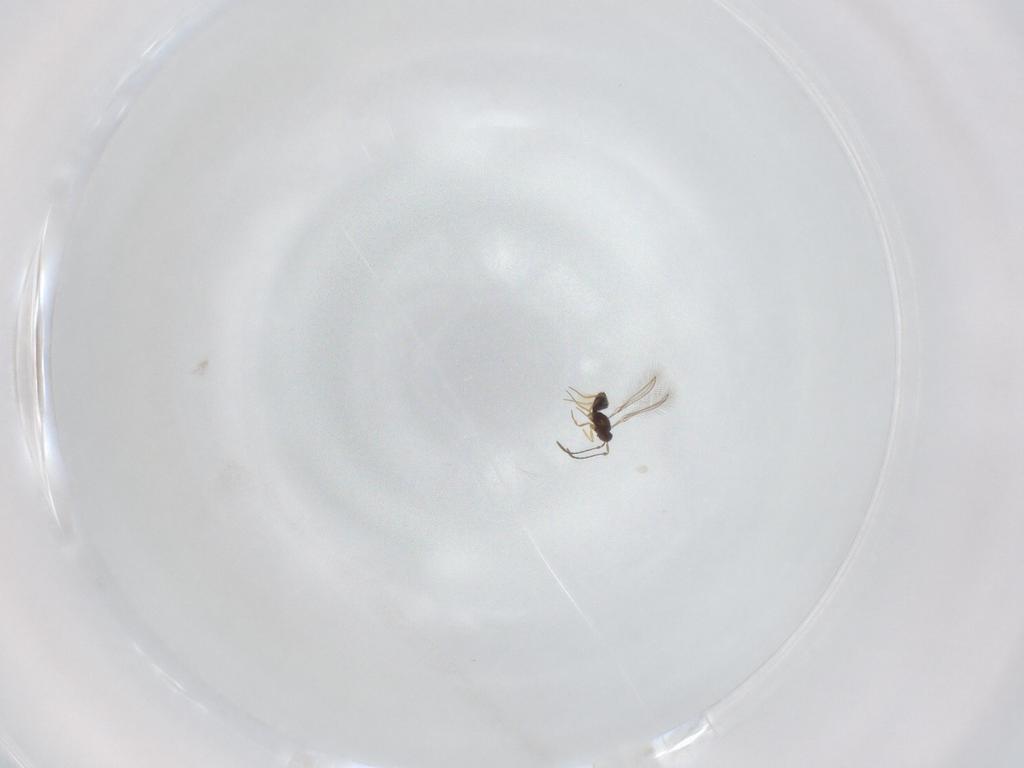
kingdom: Animalia
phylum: Arthropoda
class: Insecta
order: Hymenoptera
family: Mymaridae
